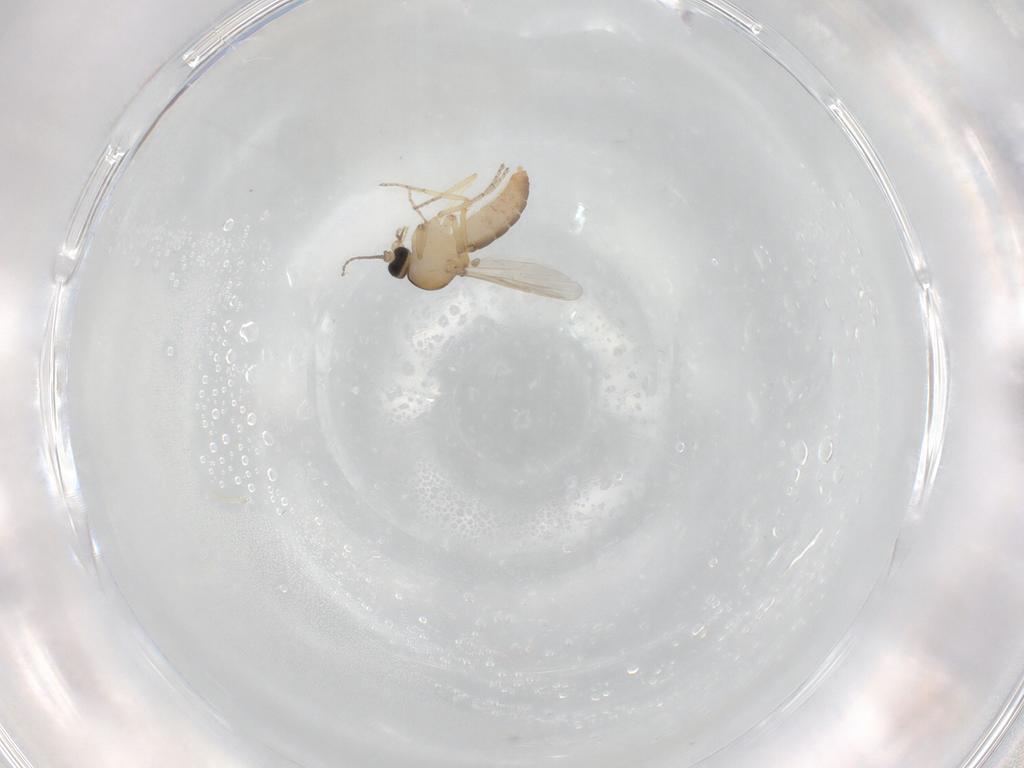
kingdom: Animalia
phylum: Arthropoda
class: Insecta
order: Diptera
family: Ceratopogonidae
